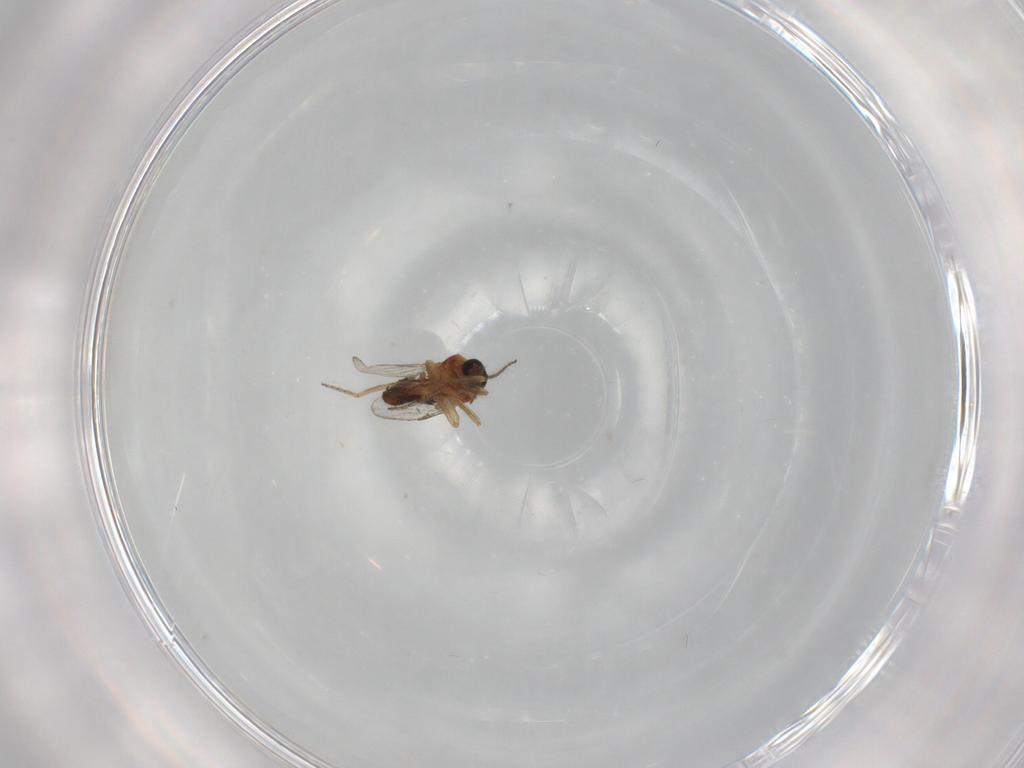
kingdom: Animalia
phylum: Arthropoda
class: Insecta
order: Diptera
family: Ceratopogonidae
